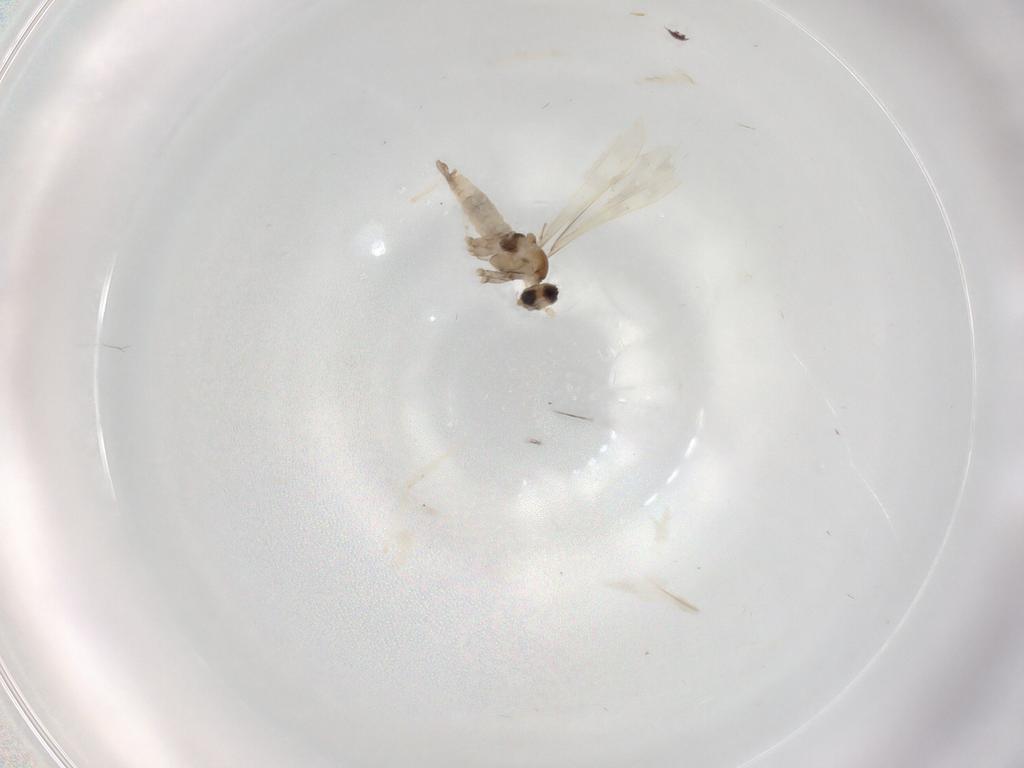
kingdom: Animalia
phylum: Arthropoda
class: Insecta
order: Diptera
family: Cecidomyiidae
